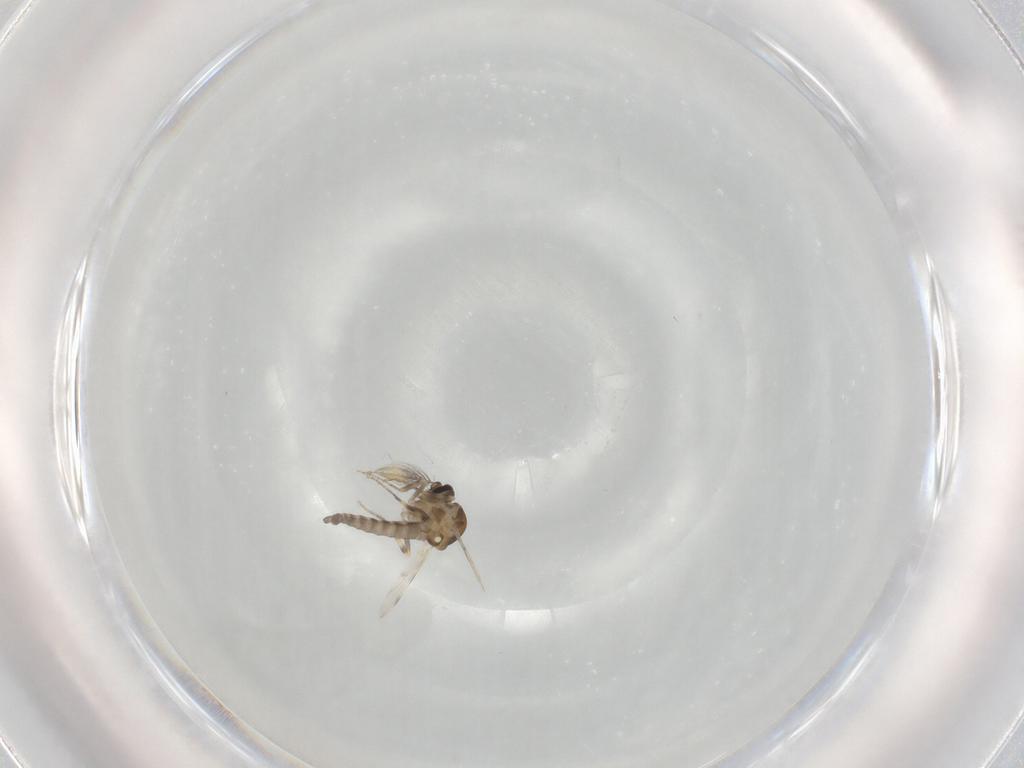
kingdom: Animalia
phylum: Arthropoda
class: Insecta
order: Diptera
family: Ceratopogonidae
